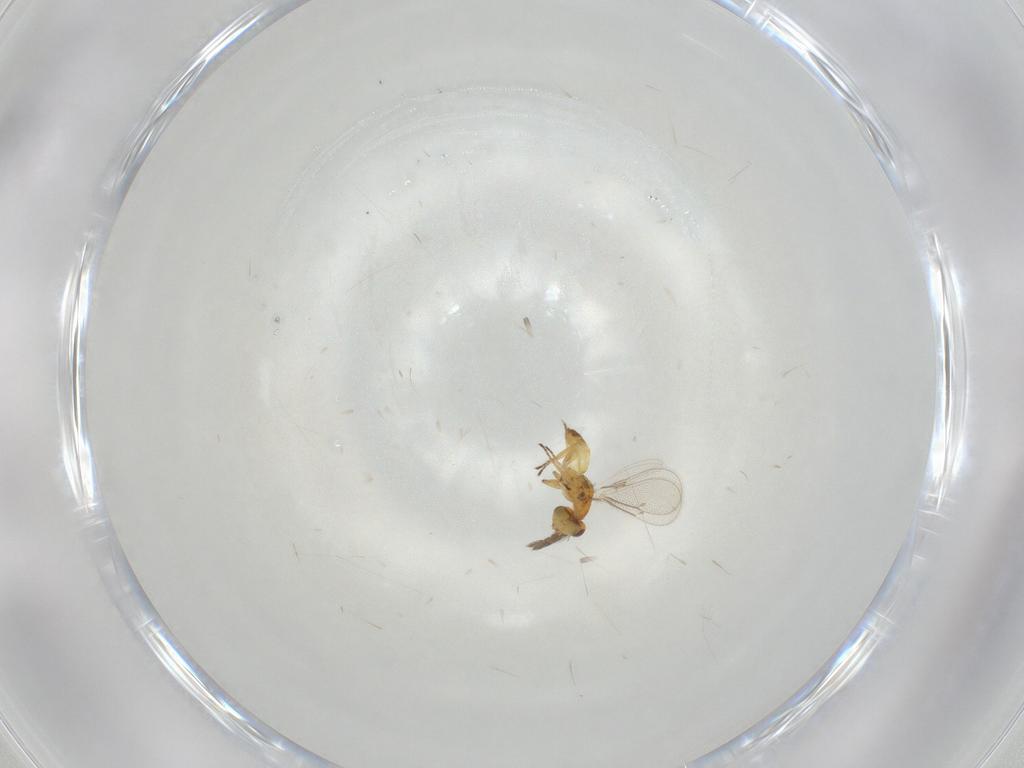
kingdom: Animalia
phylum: Arthropoda
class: Insecta
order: Hymenoptera
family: Eulophidae
